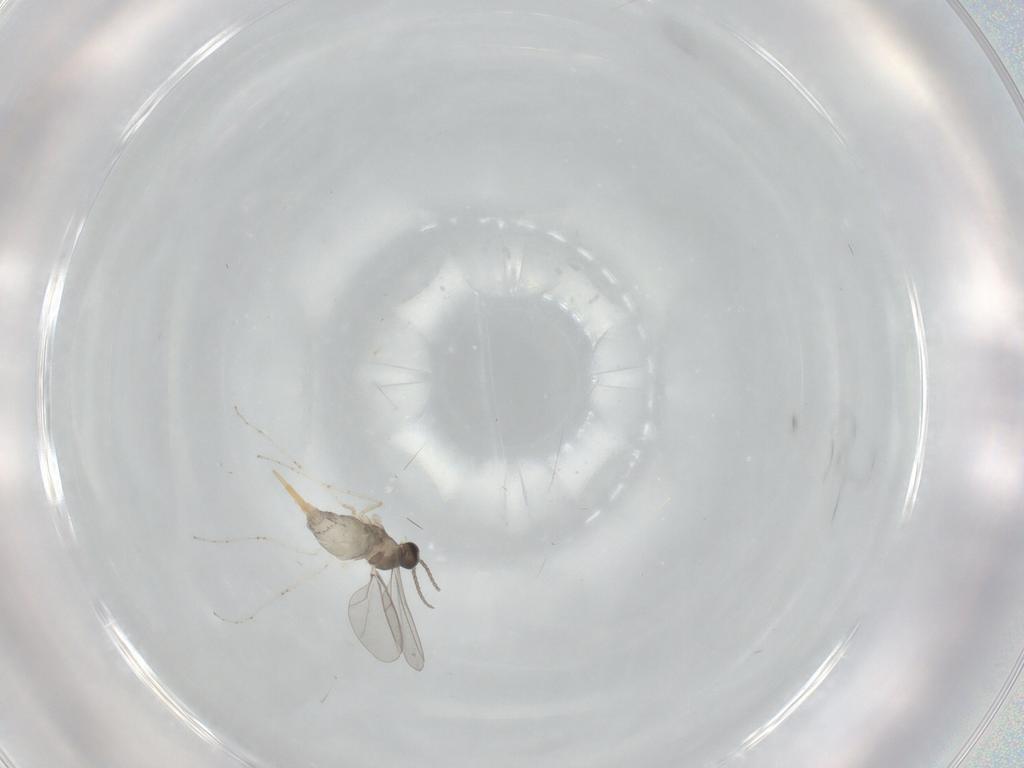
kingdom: Animalia
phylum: Arthropoda
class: Insecta
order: Diptera
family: Cecidomyiidae
